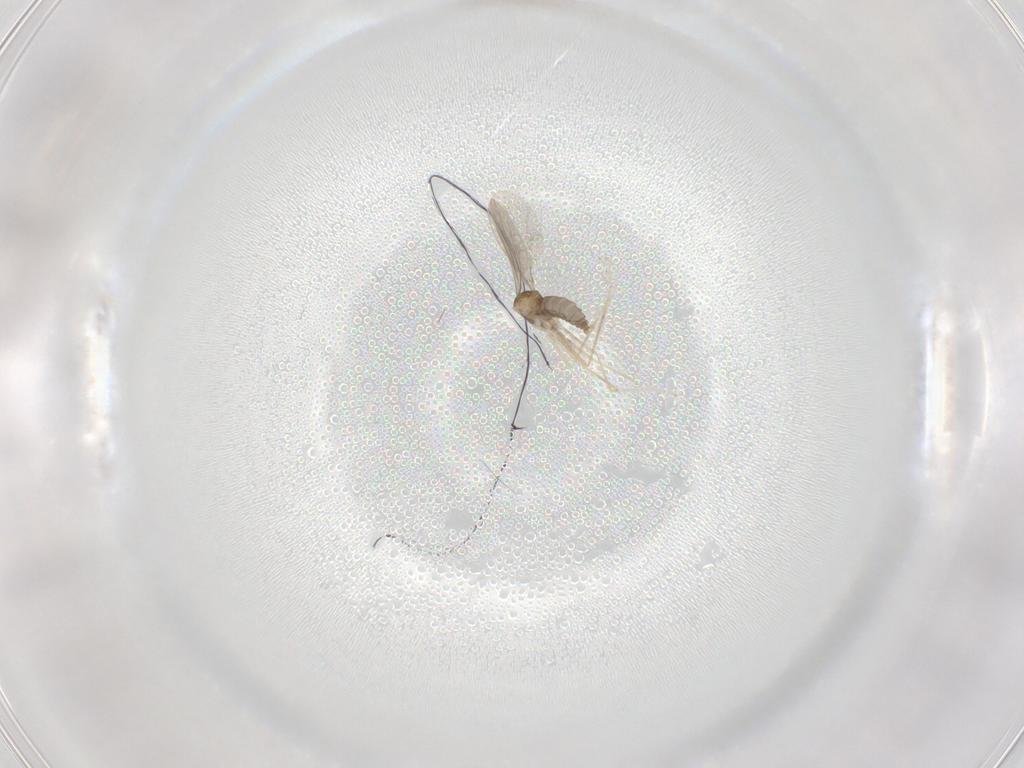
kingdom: Animalia
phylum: Arthropoda
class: Insecta
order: Diptera
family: Cecidomyiidae
